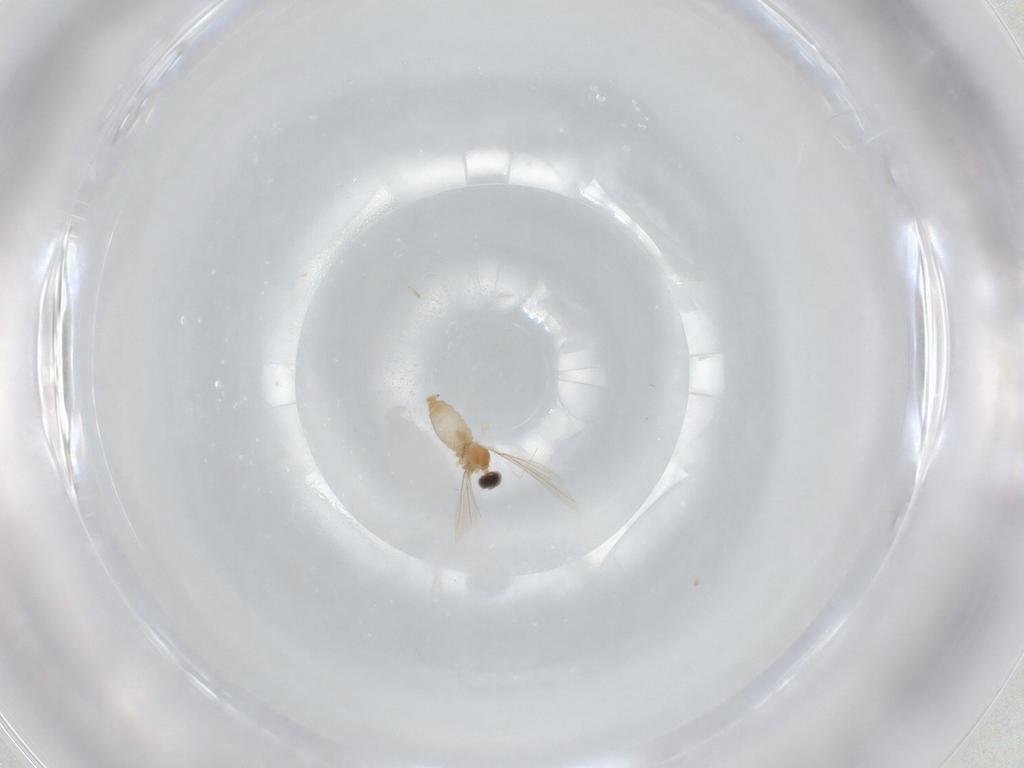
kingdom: Animalia
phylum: Arthropoda
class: Insecta
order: Diptera
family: Cecidomyiidae
